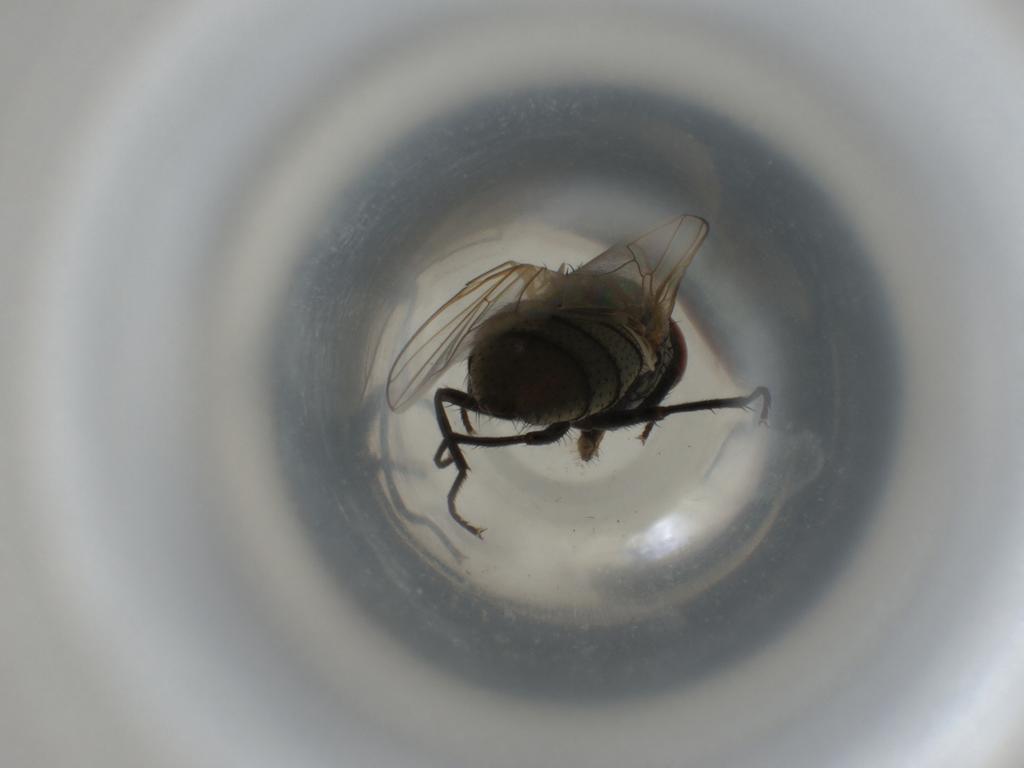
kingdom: Animalia
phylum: Arthropoda
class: Insecta
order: Diptera
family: Muscidae
